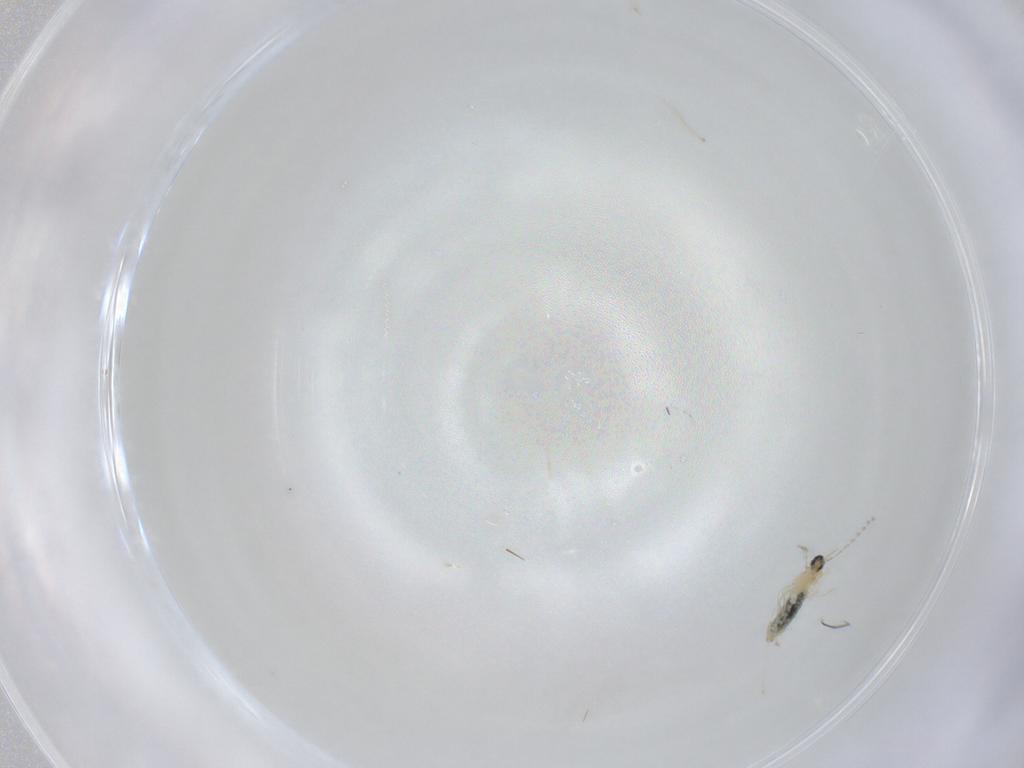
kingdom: Animalia
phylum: Arthropoda
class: Insecta
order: Diptera
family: Cecidomyiidae
